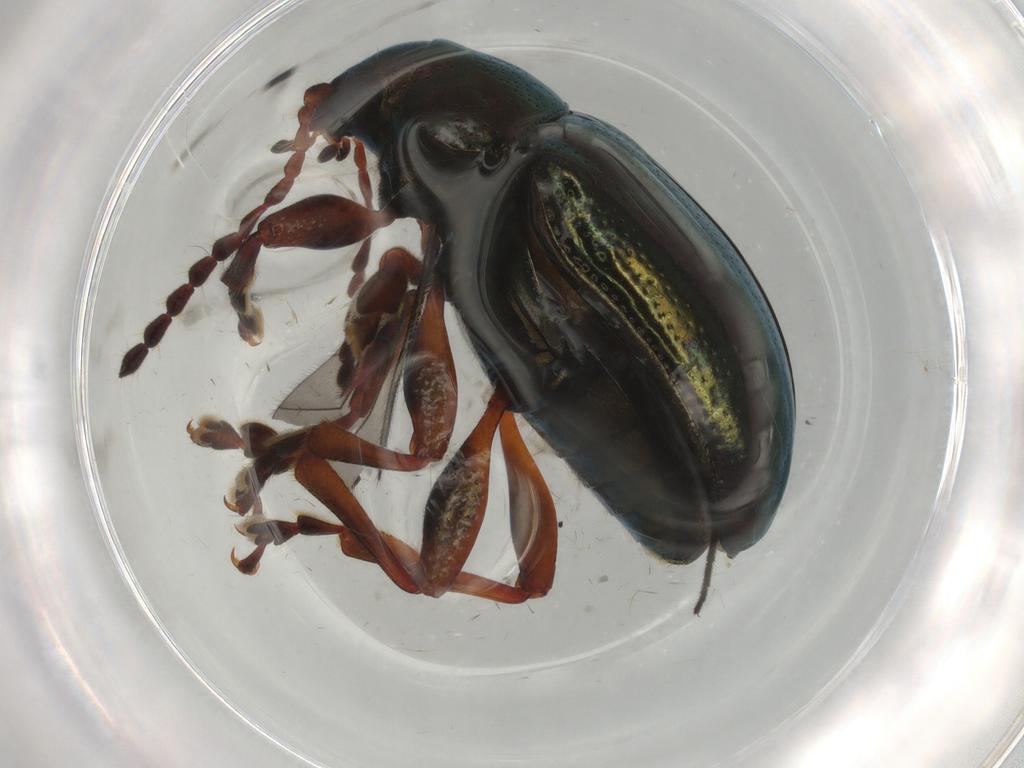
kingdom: Animalia
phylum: Arthropoda
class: Insecta
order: Coleoptera
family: Chrysomelidae
